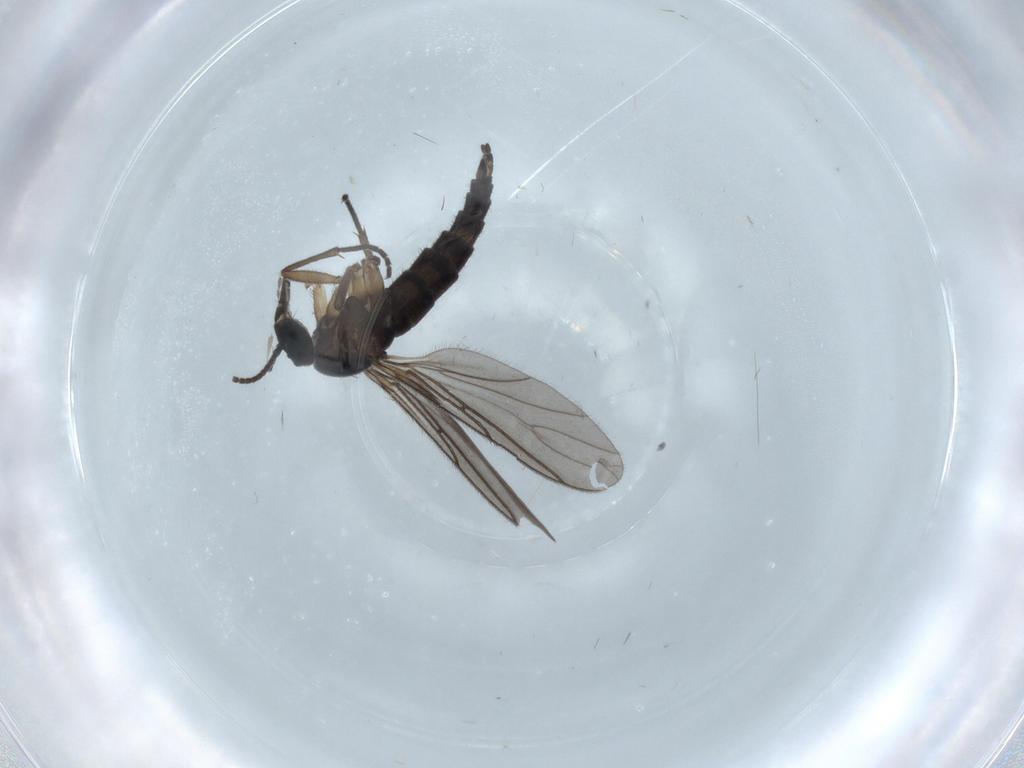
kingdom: Animalia
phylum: Arthropoda
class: Insecta
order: Diptera
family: Sciaridae
